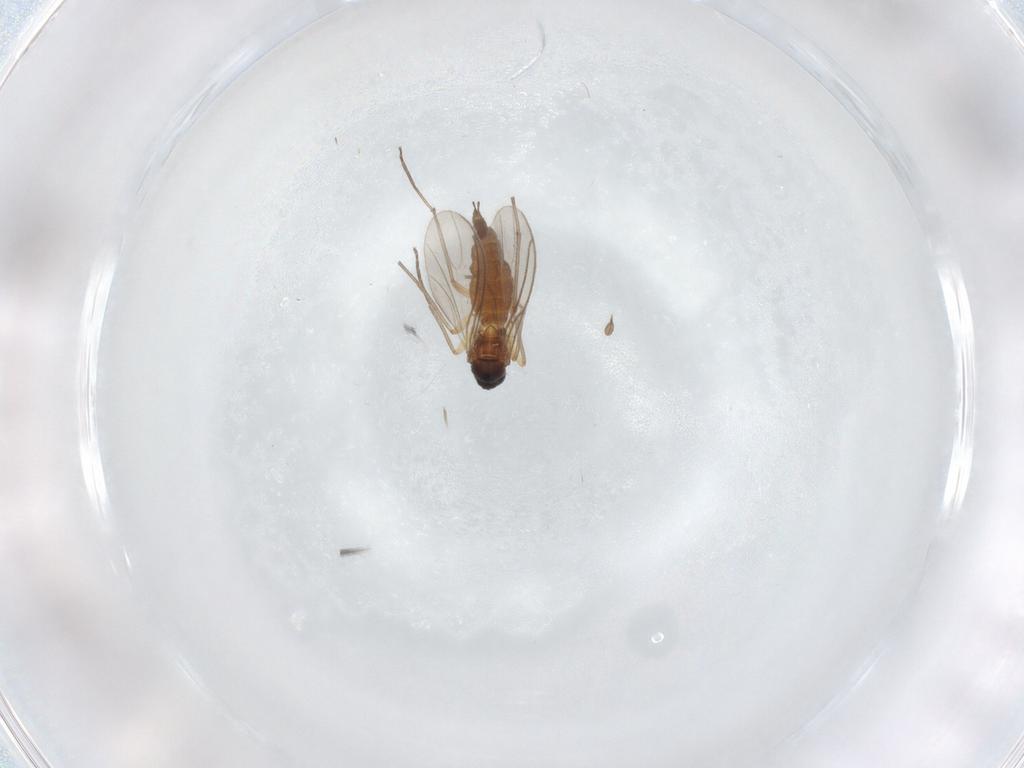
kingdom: Animalia
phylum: Arthropoda
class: Insecta
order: Diptera
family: Sciaridae
